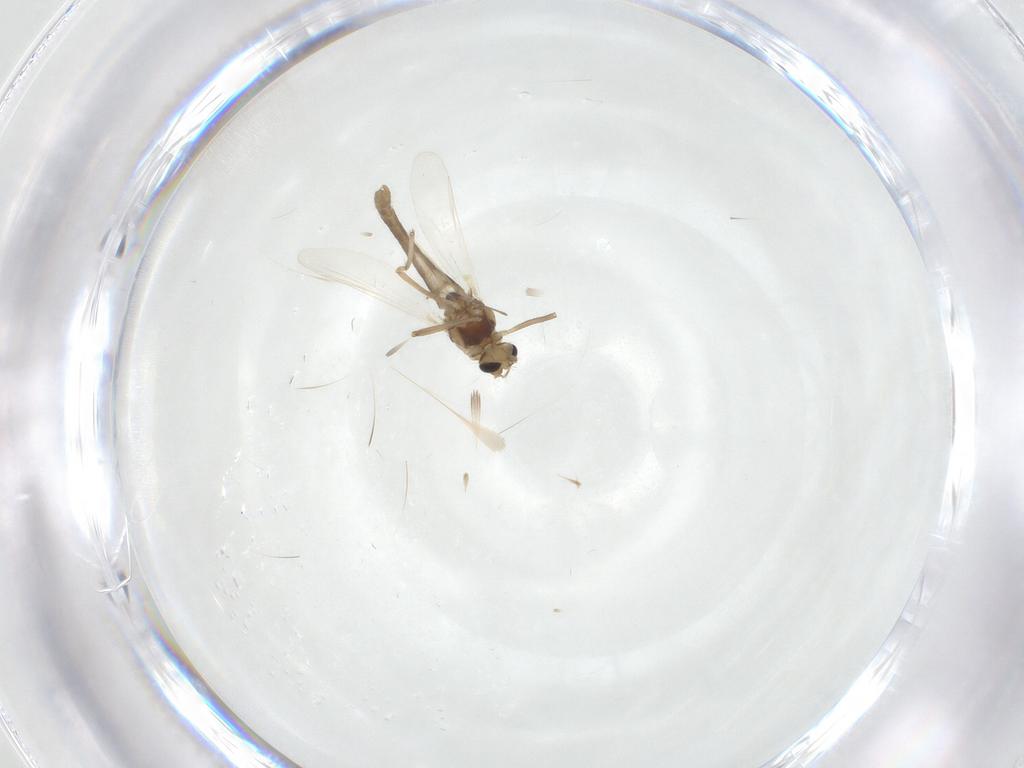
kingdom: Animalia
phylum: Arthropoda
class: Insecta
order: Diptera
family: Chironomidae
